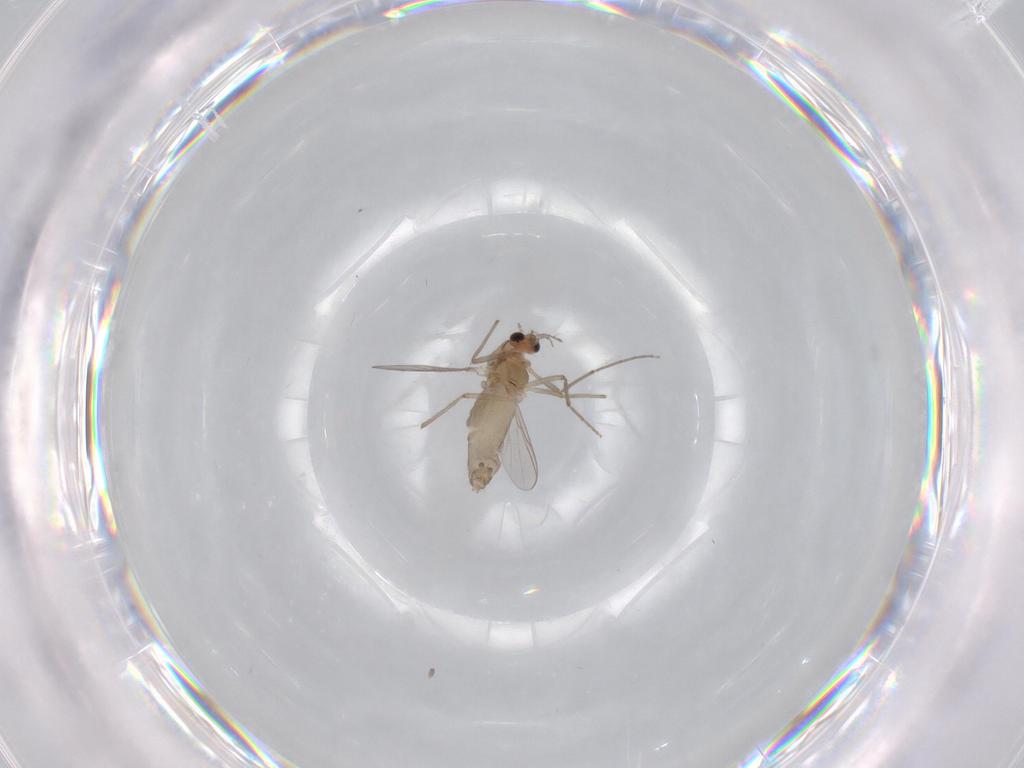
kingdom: Animalia
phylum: Arthropoda
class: Insecta
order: Diptera
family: Chironomidae
